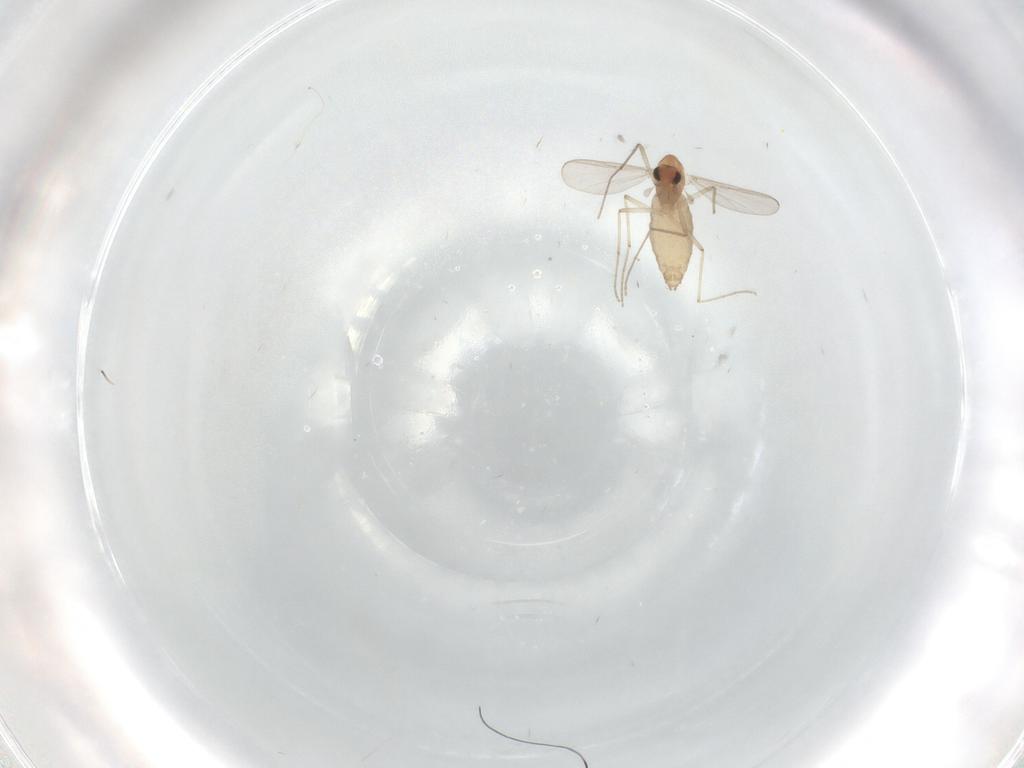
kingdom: Animalia
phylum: Arthropoda
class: Insecta
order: Diptera
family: Chironomidae
